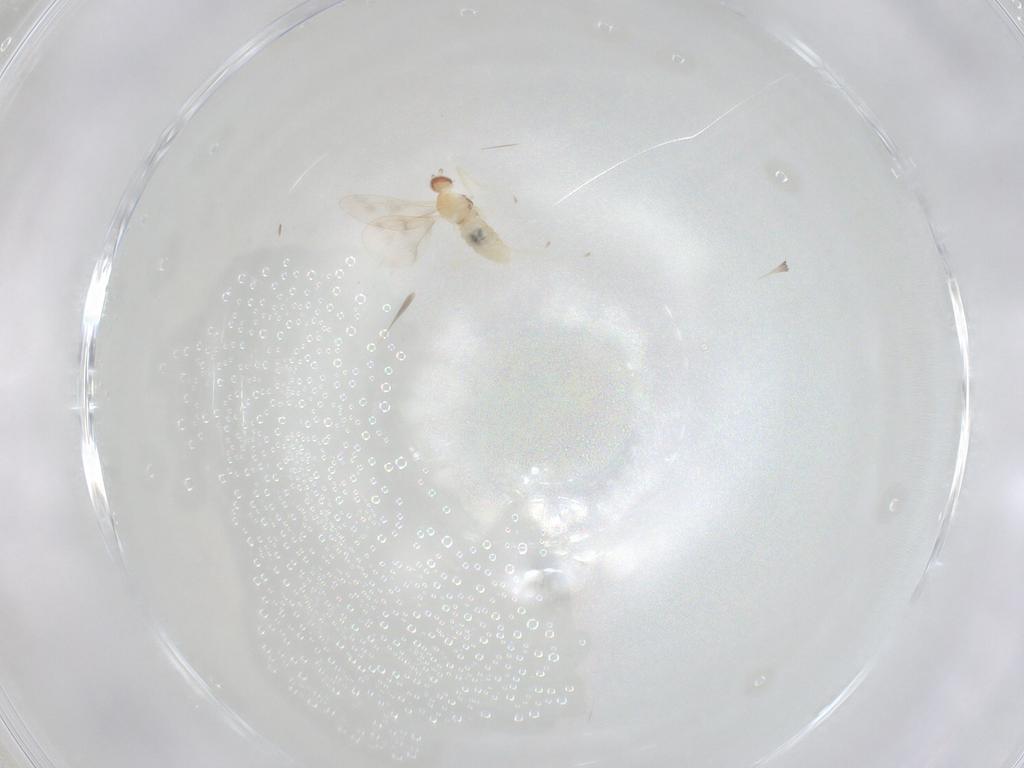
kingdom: Animalia
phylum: Arthropoda
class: Insecta
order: Diptera
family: Cecidomyiidae
